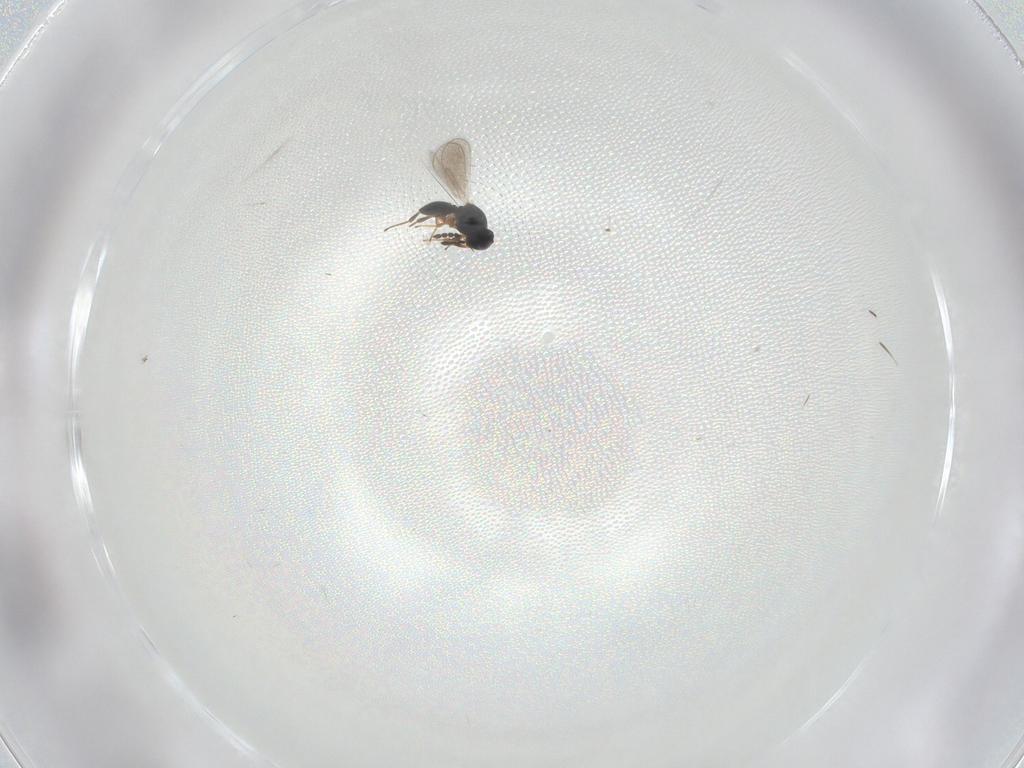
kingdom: Animalia
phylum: Arthropoda
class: Insecta
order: Hymenoptera
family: Platygastridae
